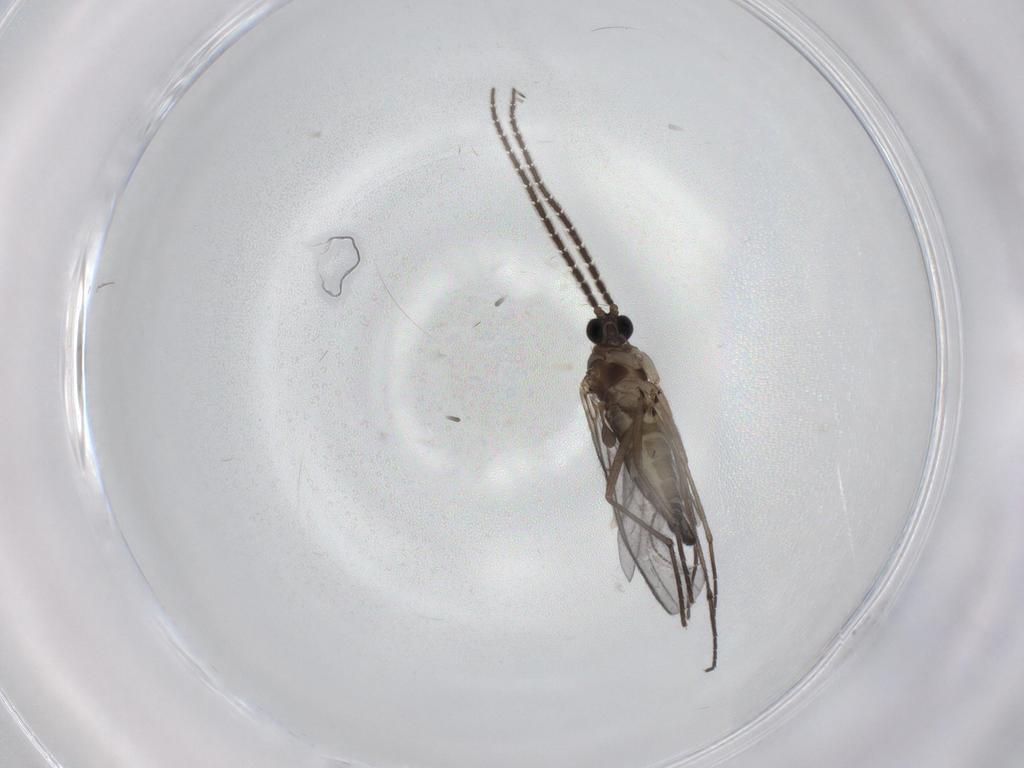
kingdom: Animalia
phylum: Arthropoda
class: Insecta
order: Diptera
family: Sciaridae
